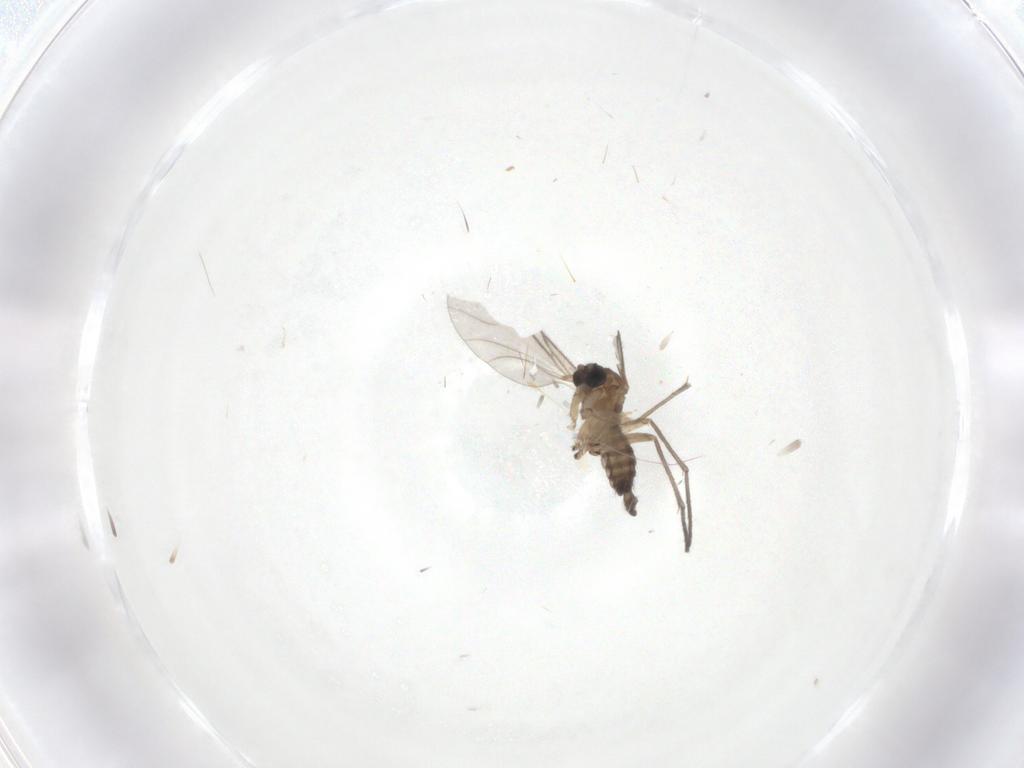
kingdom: Animalia
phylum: Arthropoda
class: Insecta
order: Diptera
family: Sciaridae
